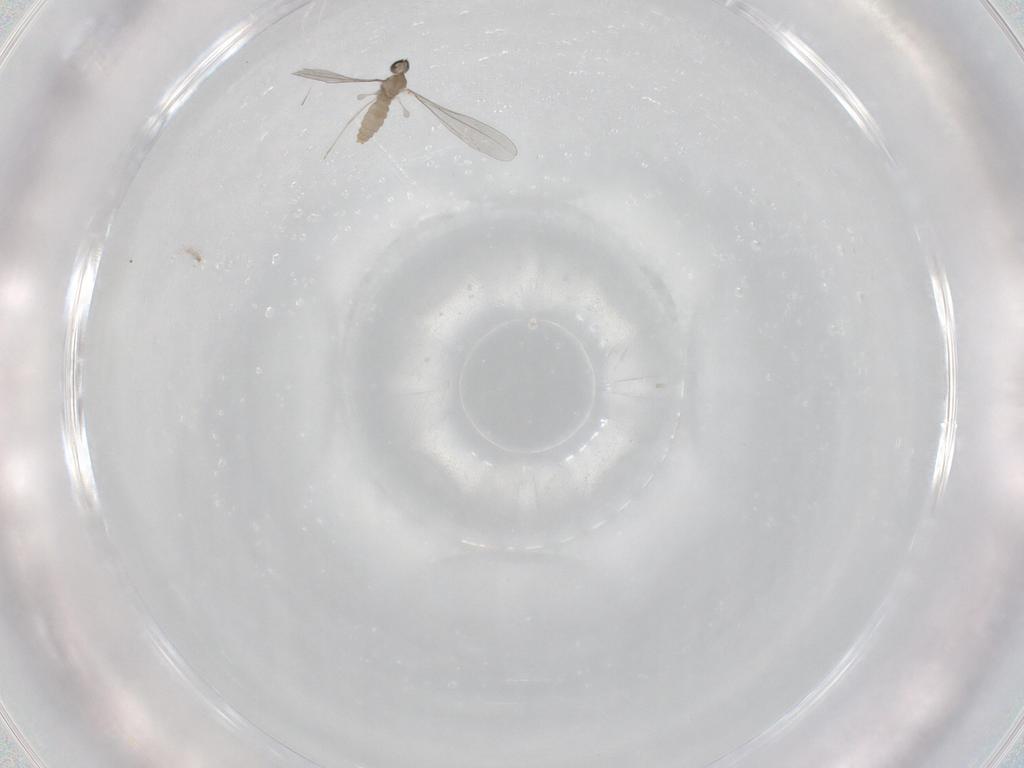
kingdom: Animalia
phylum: Arthropoda
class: Insecta
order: Diptera
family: Cecidomyiidae
